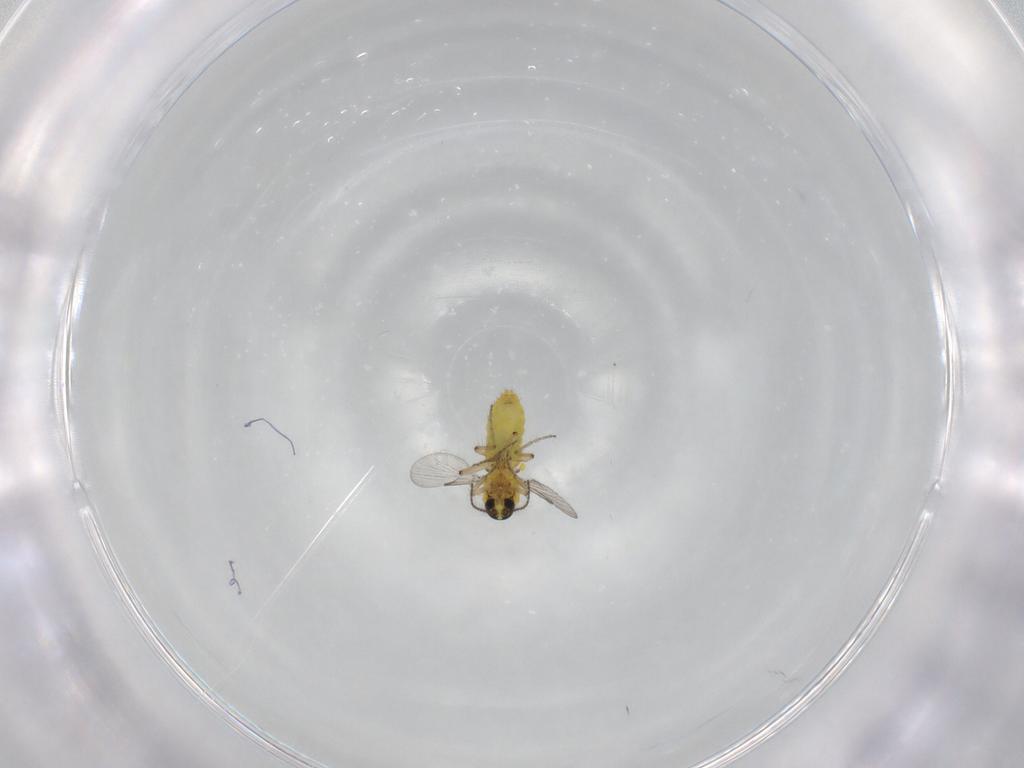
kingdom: Animalia
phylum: Arthropoda
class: Insecta
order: Diptera
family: Ceratopogonidae
